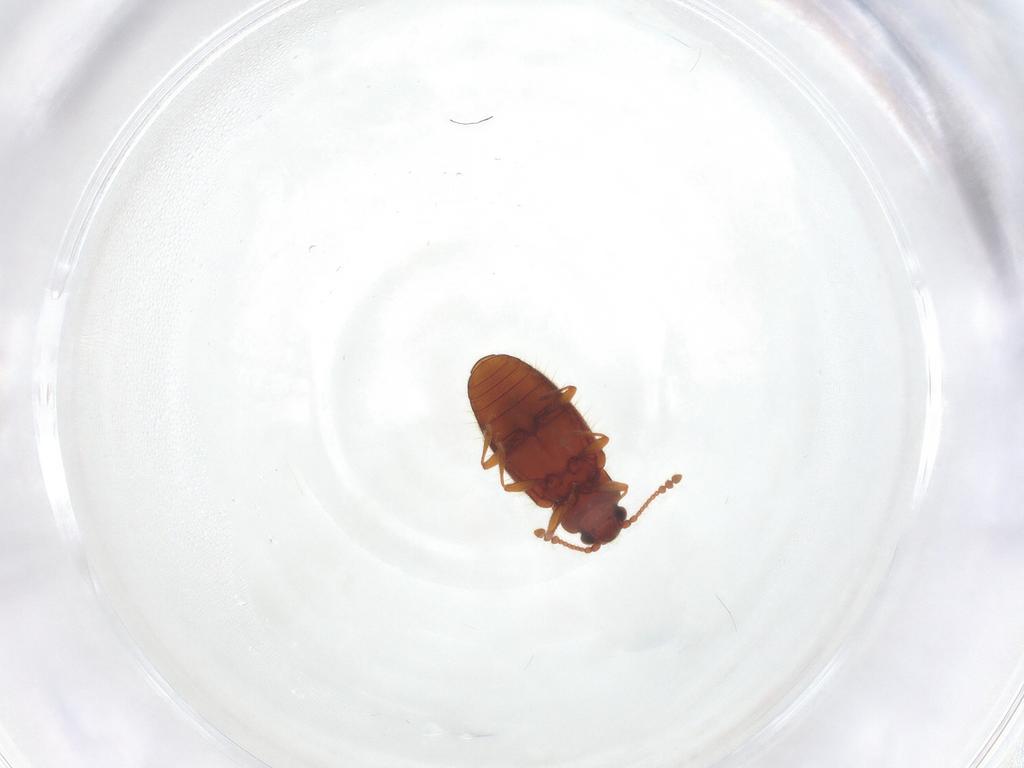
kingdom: Animalia
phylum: Arthropoda
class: Insecta
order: Coleoptera
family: Cryptophagidae
